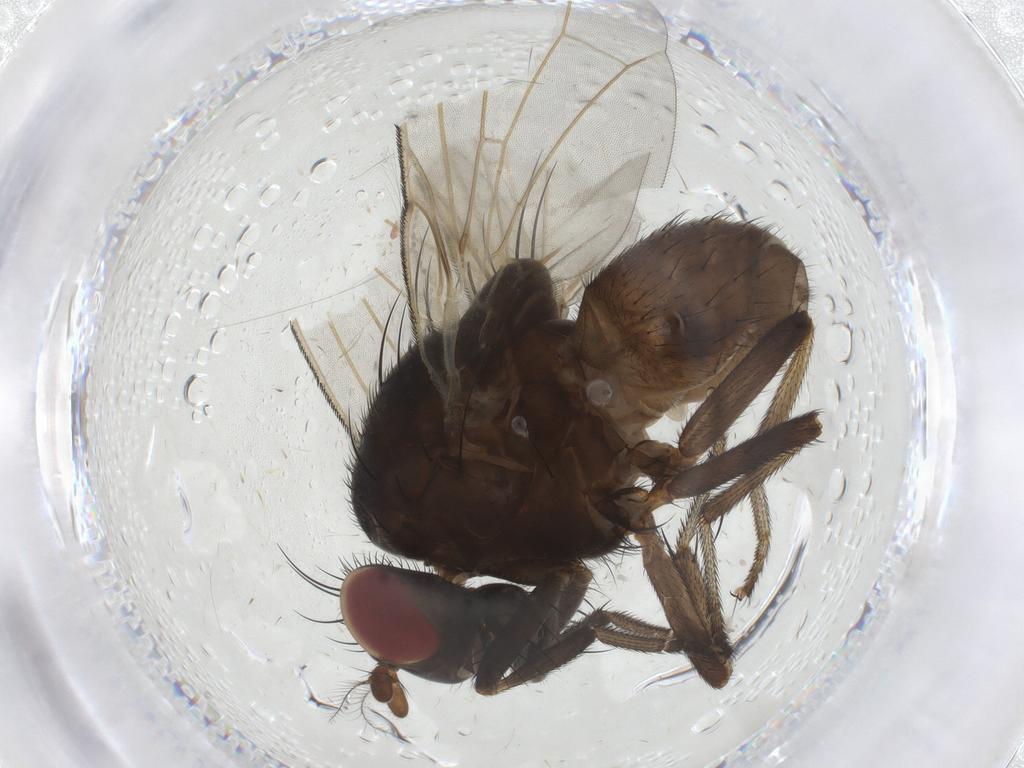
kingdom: Animalia
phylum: Arthropoda
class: Insecta
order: Diptera
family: Lauxaniidae
